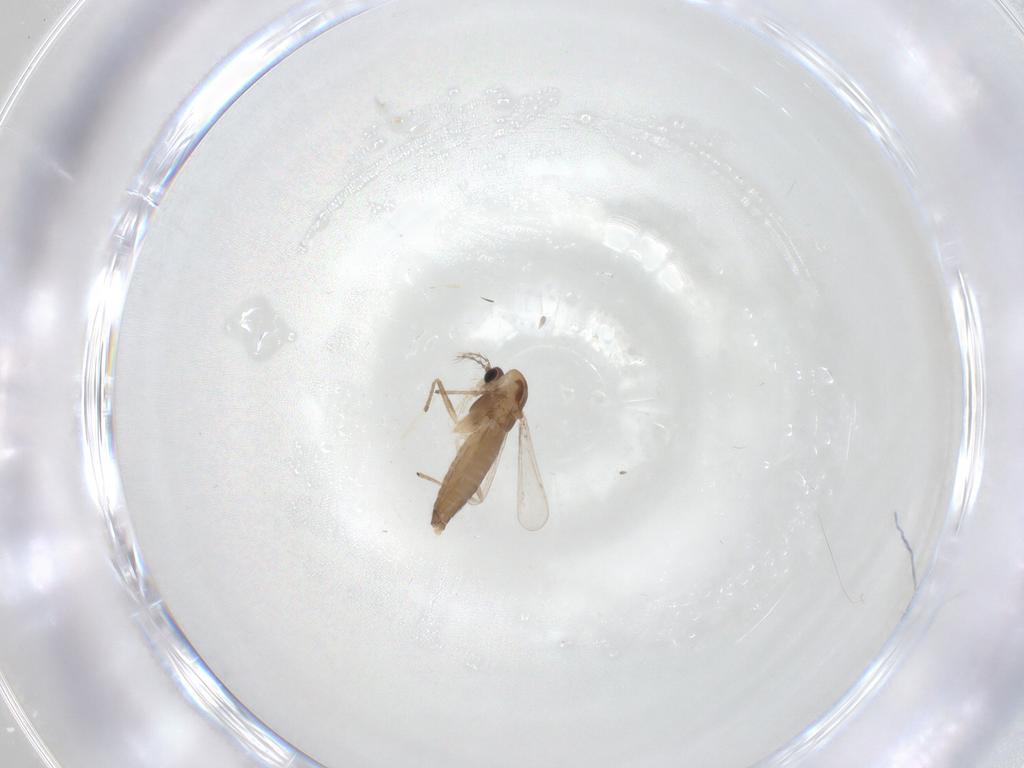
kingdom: Animalia
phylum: Arthropoda
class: Insecta
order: Diptera
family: Chironomidae
